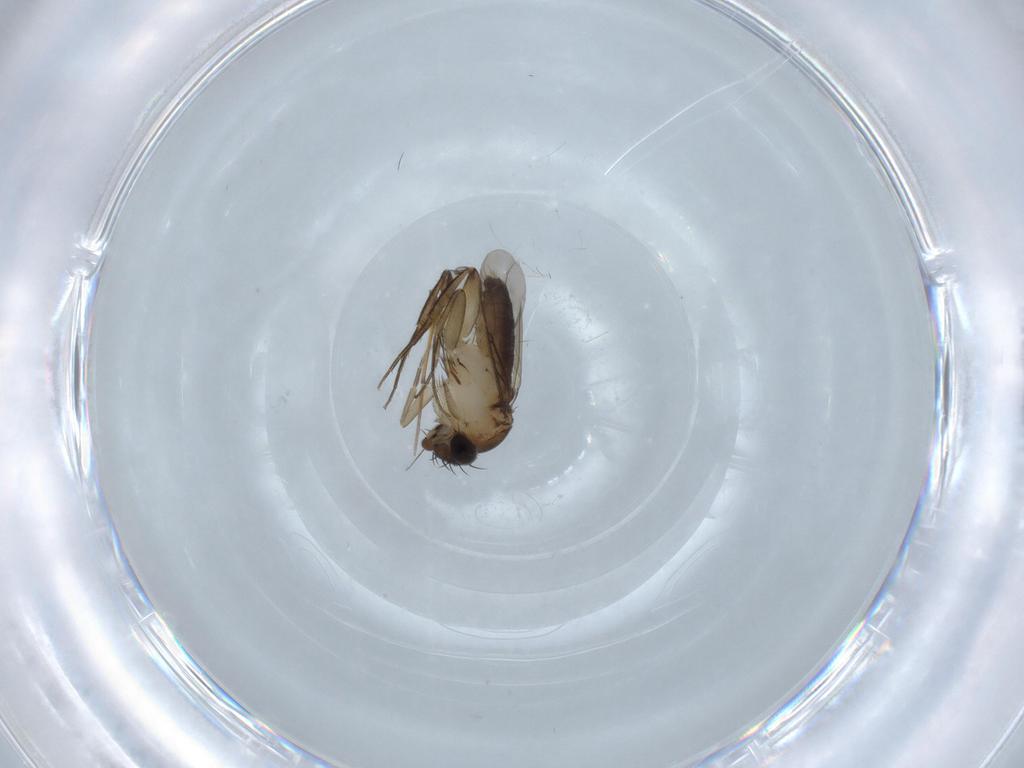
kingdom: Animalia
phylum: Arthropoda
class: Insecta
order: Diptera
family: Phoridae
